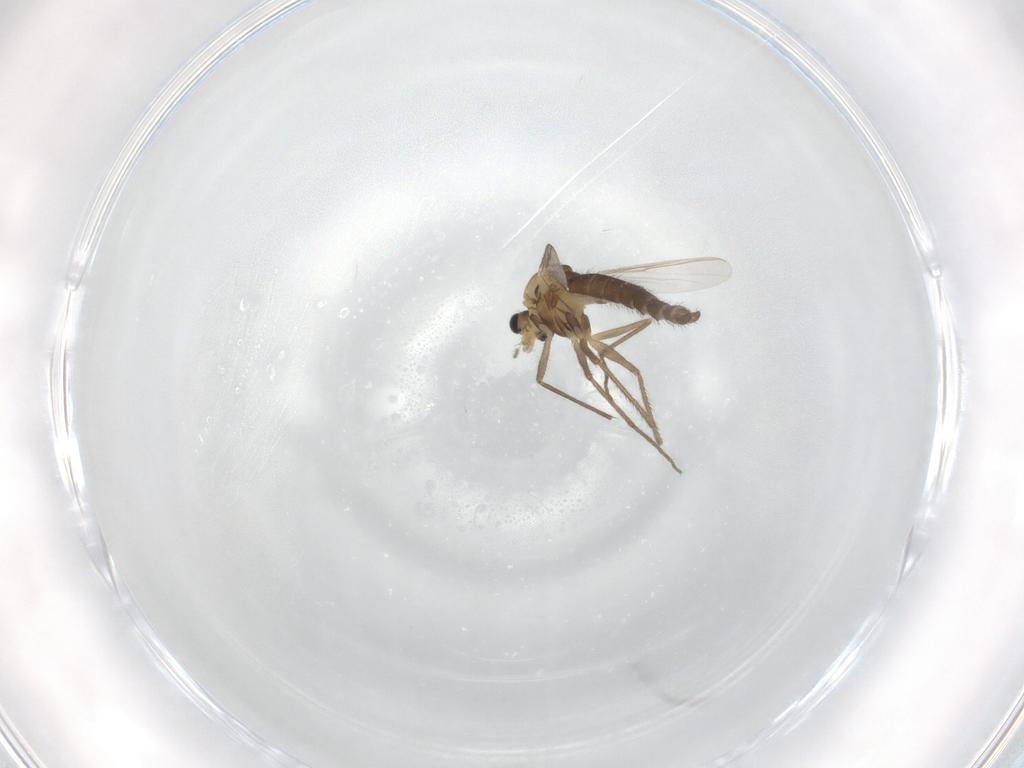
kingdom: Animalia
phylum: Arthropoda
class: Insecta
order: Diptera
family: Chironomidae
